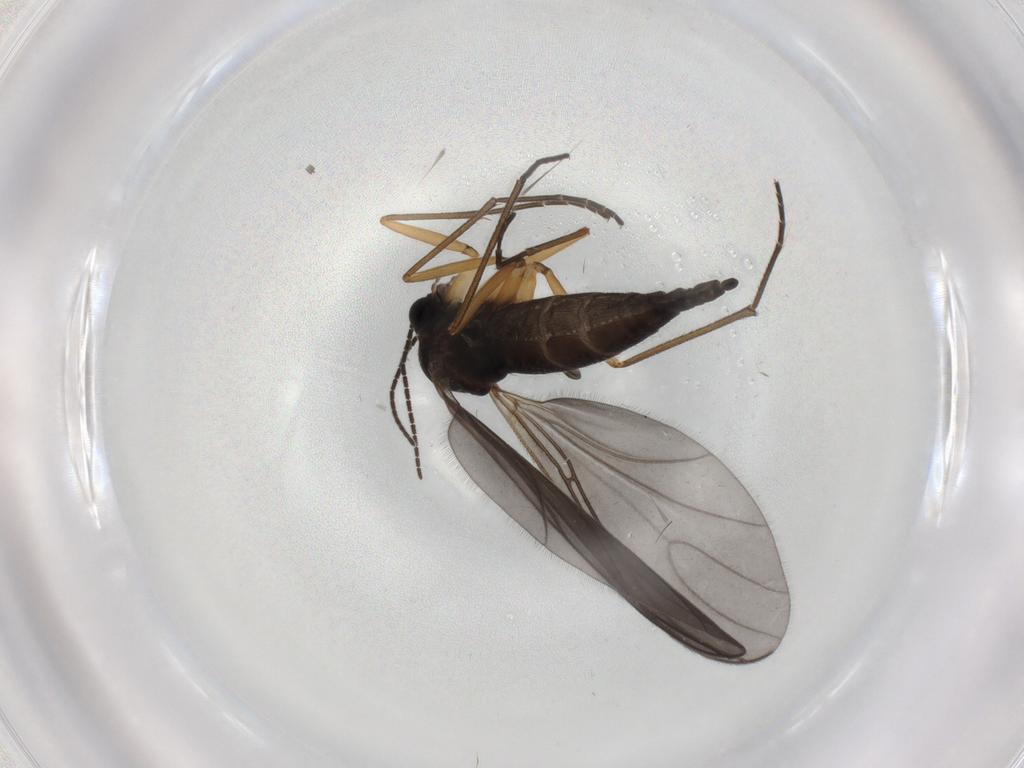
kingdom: Animalia
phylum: Arthropoda
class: Insecta
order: Diptera
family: Sciaridae
